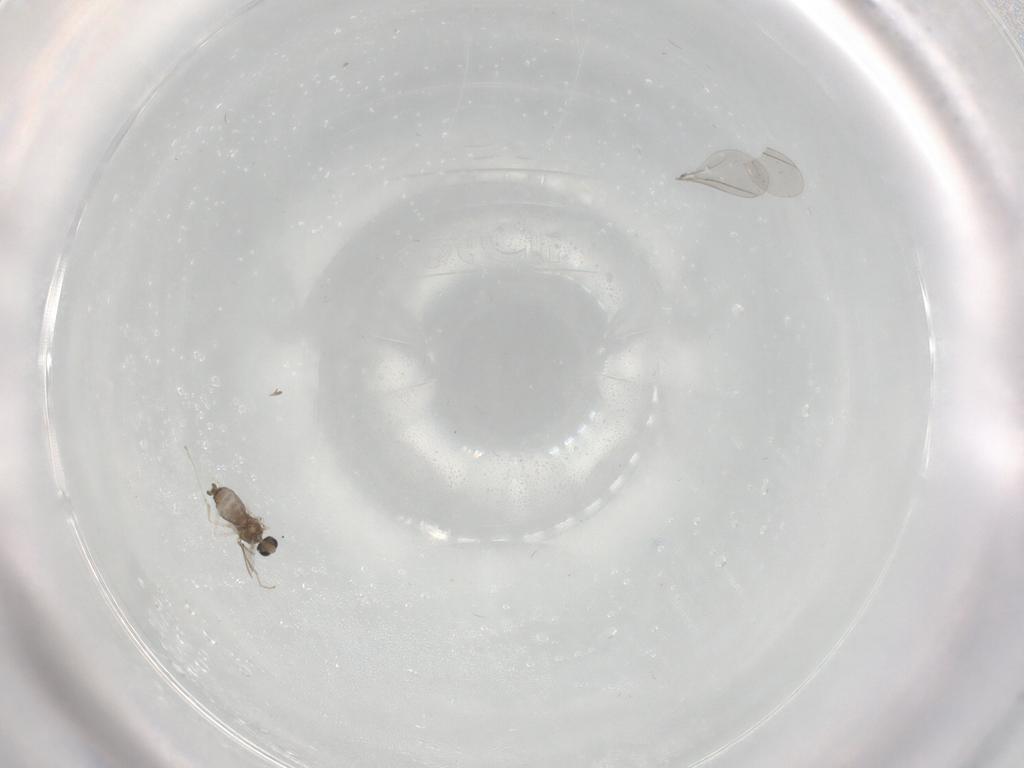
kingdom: Animalia
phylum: Arthropoda
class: Insecta
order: Diptera
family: Cecidomyiidae
